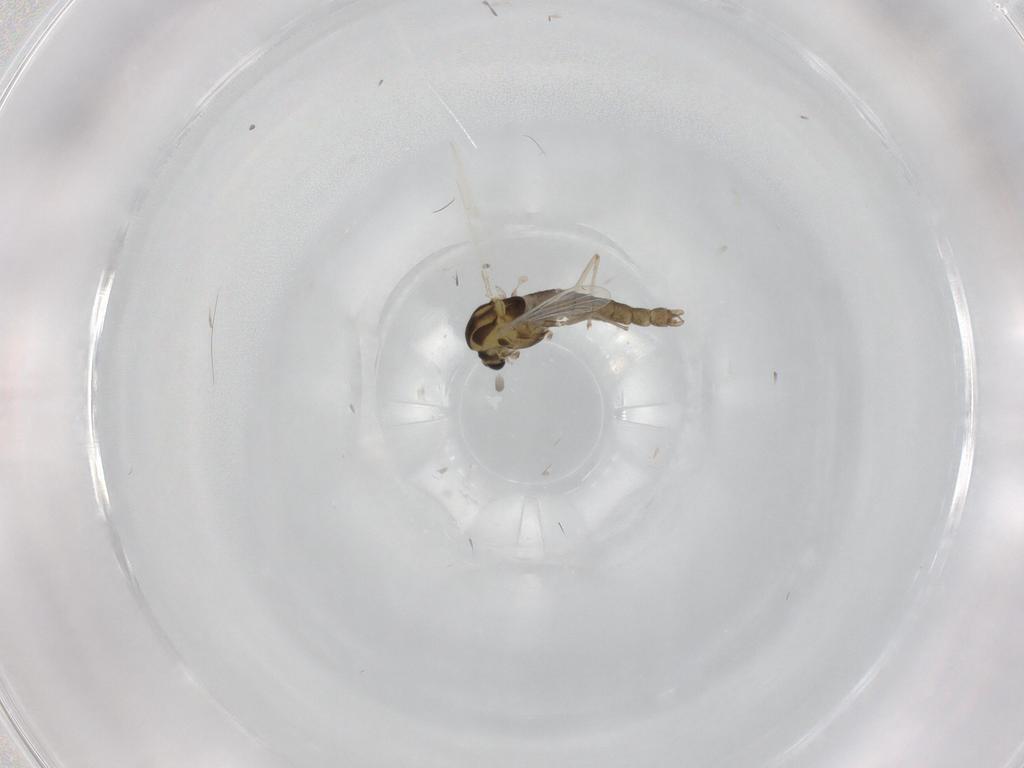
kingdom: Animalia
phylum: Arthropoda
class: Insecta
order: Diptera
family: Chironomidae
